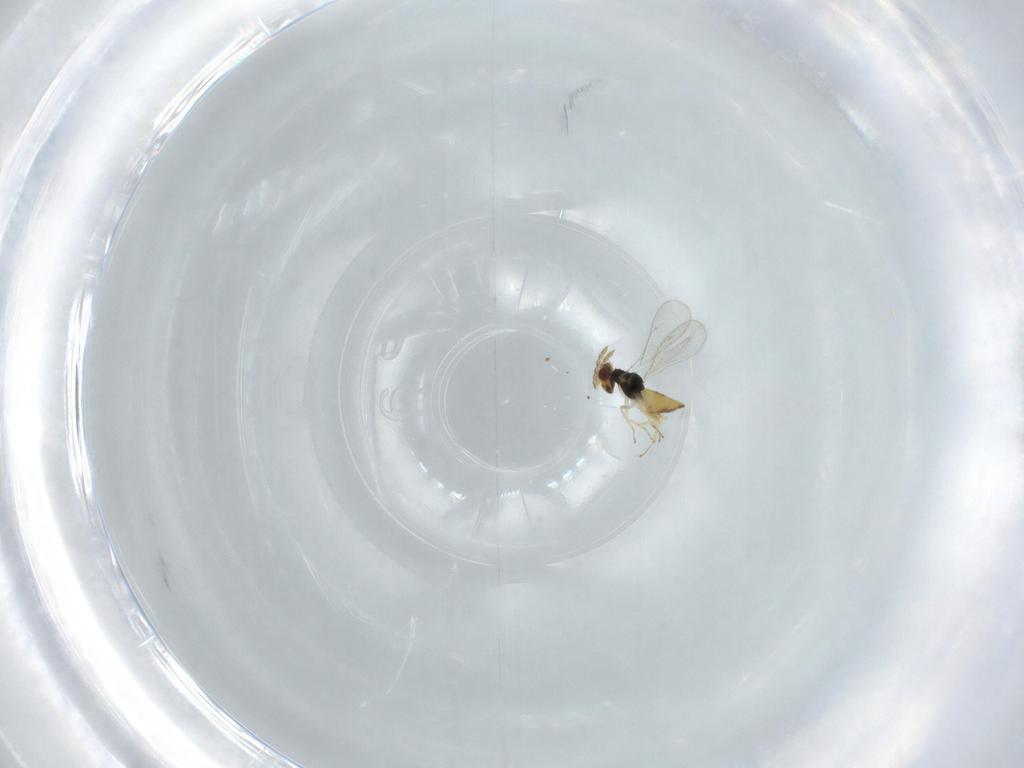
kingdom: Animalia
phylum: Arthropoda
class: Insecta
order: Hymenoptera
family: Eulophidae
